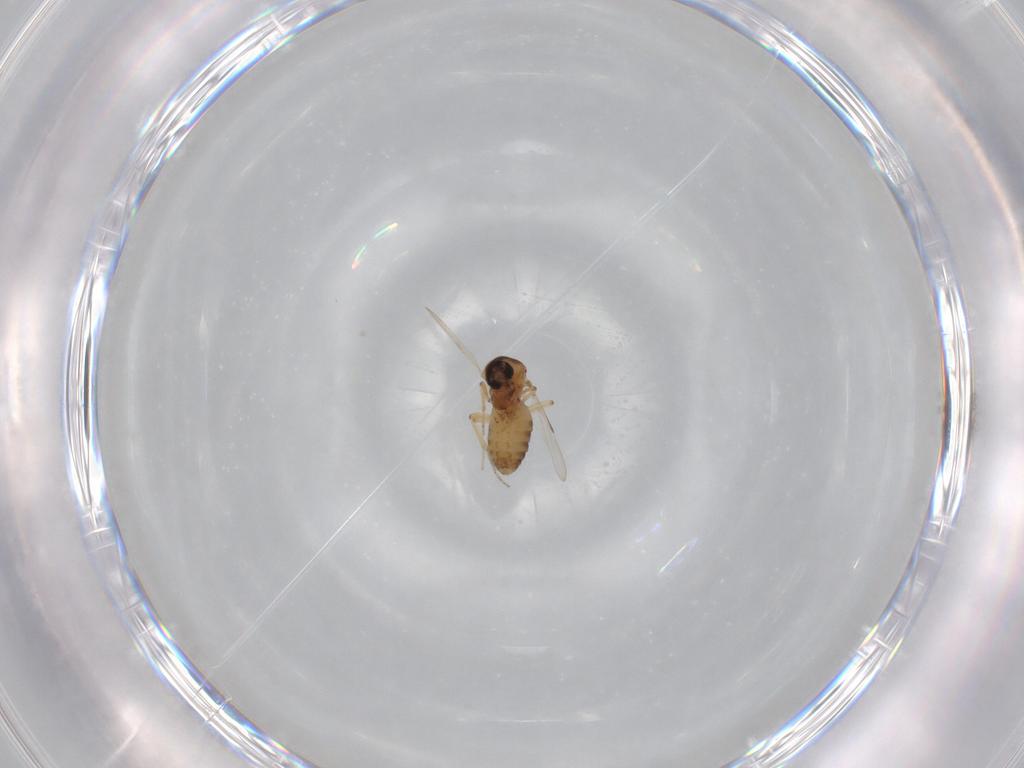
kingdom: Animalia
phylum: Arthropoda
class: Insecta
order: Diptera
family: Ceratopogonidae
